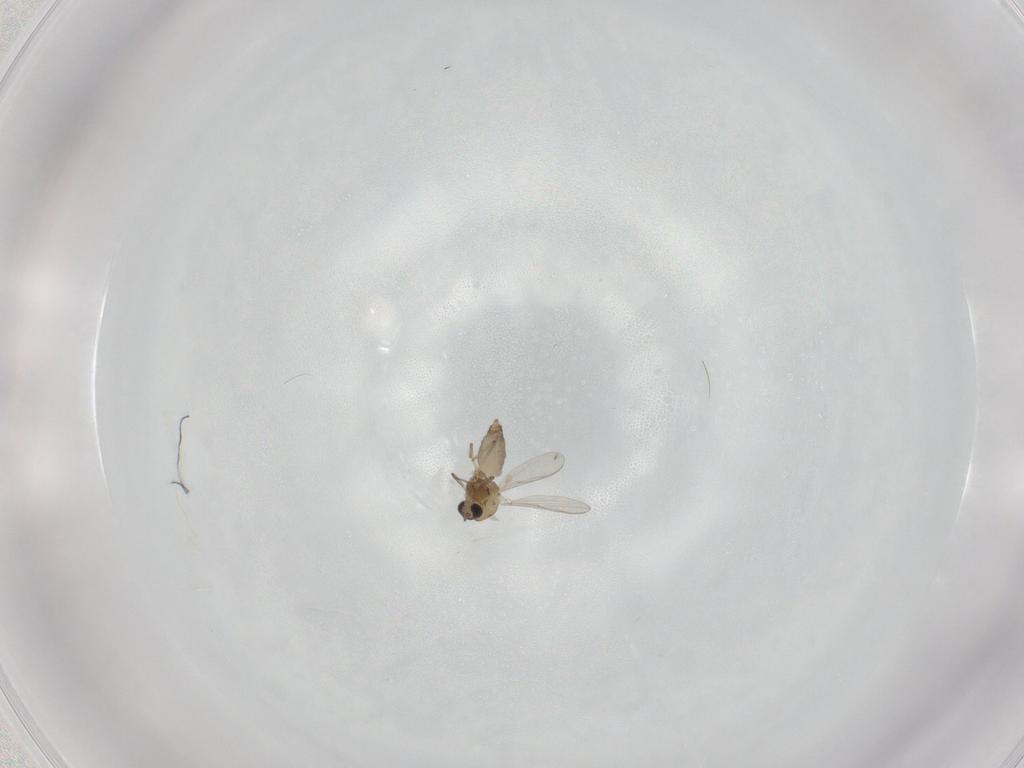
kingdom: Animalia
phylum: Arthropoda
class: Insecta
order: Diptera
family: Chironomidae
